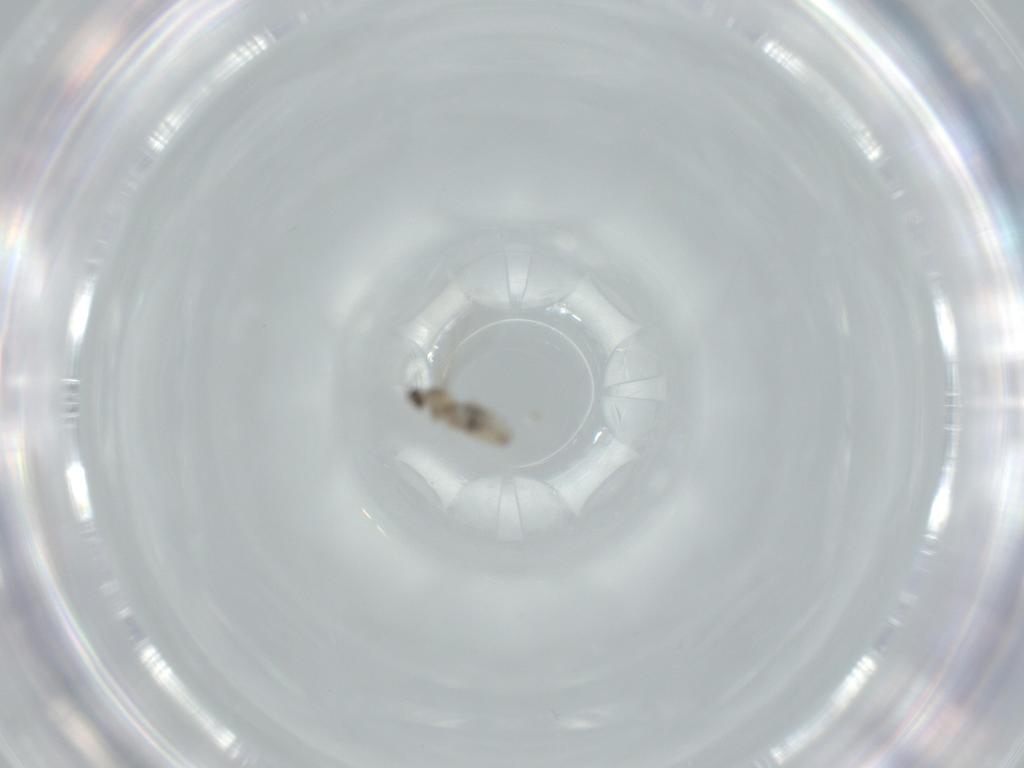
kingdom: Animalia
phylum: Arthropoda
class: Insecta
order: Diptera
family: Cecidomyiidae
